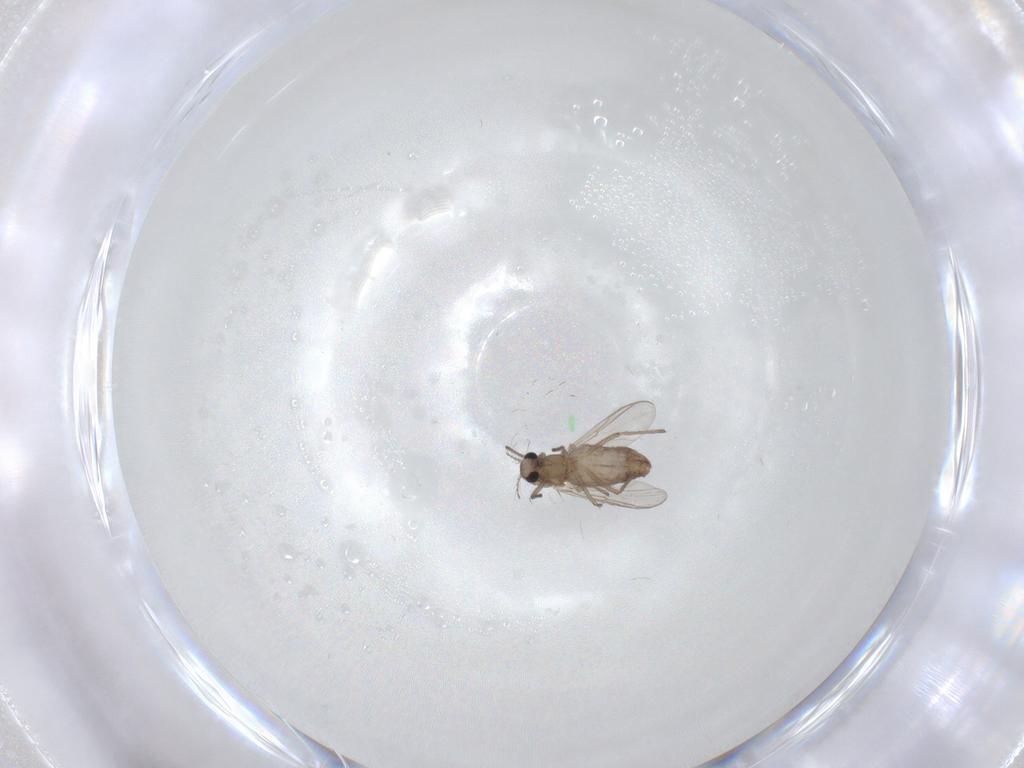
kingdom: Animalia
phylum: Arthropoda
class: Insecta
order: Diptera
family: Chironomidae
